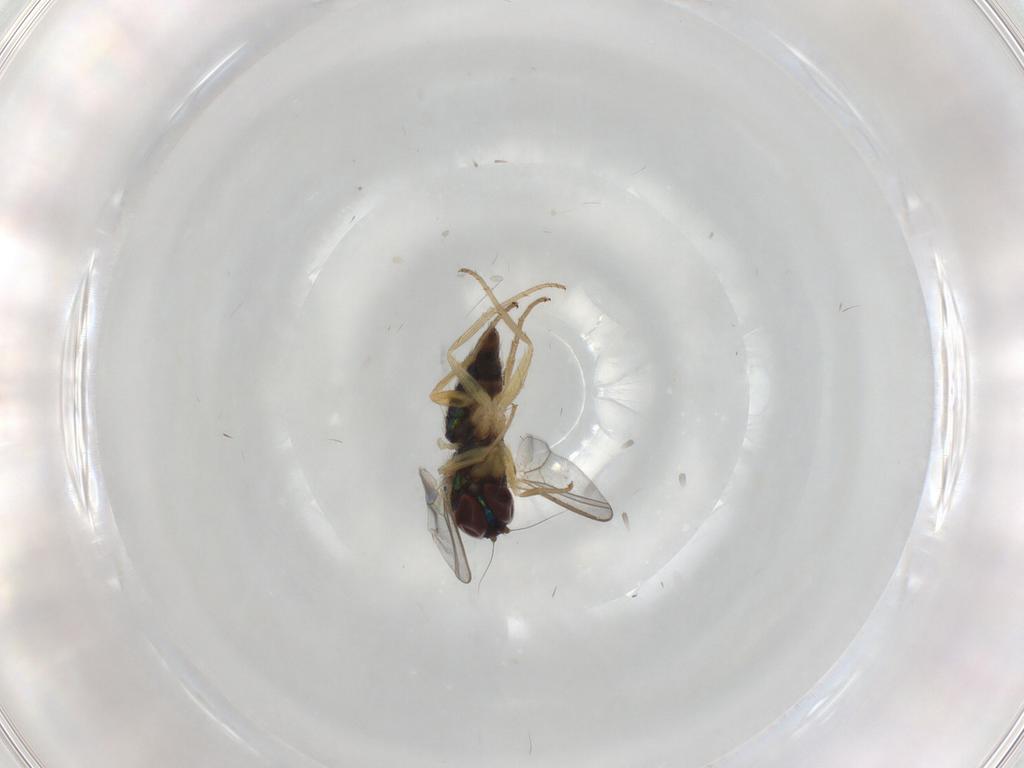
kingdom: Animalia
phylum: Arthropoda
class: Insecta
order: Diptera
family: Dolichopodidae
